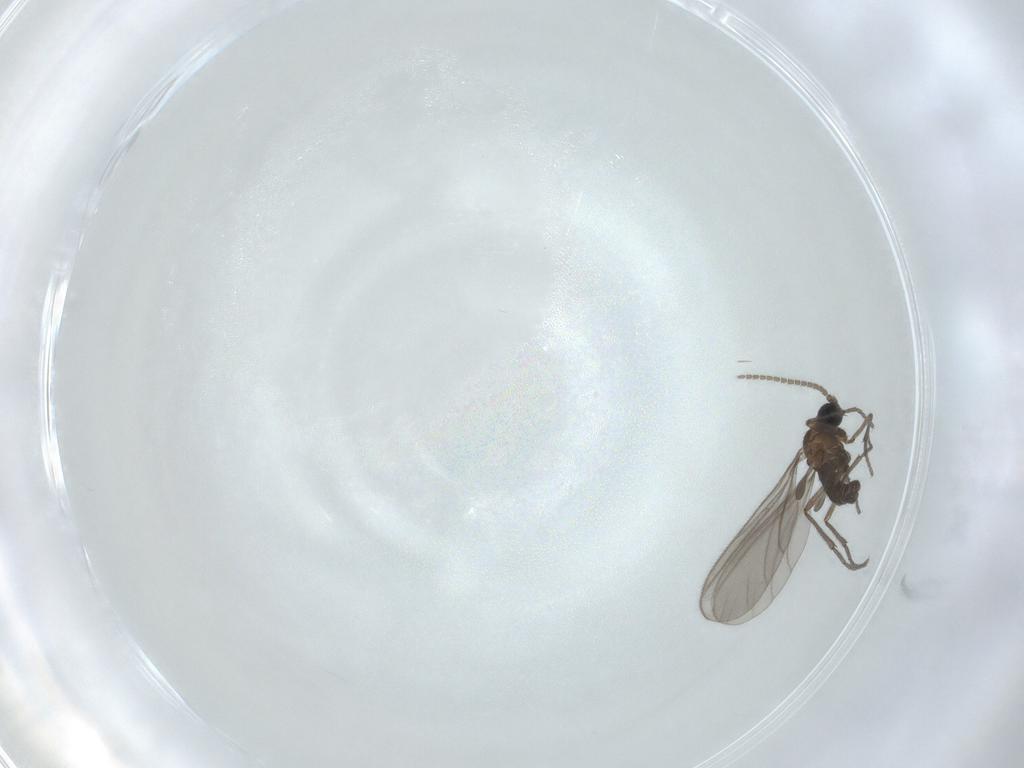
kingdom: Animalia
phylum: Arthropoda
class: Insecta
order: Diptera
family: Sciaridae
